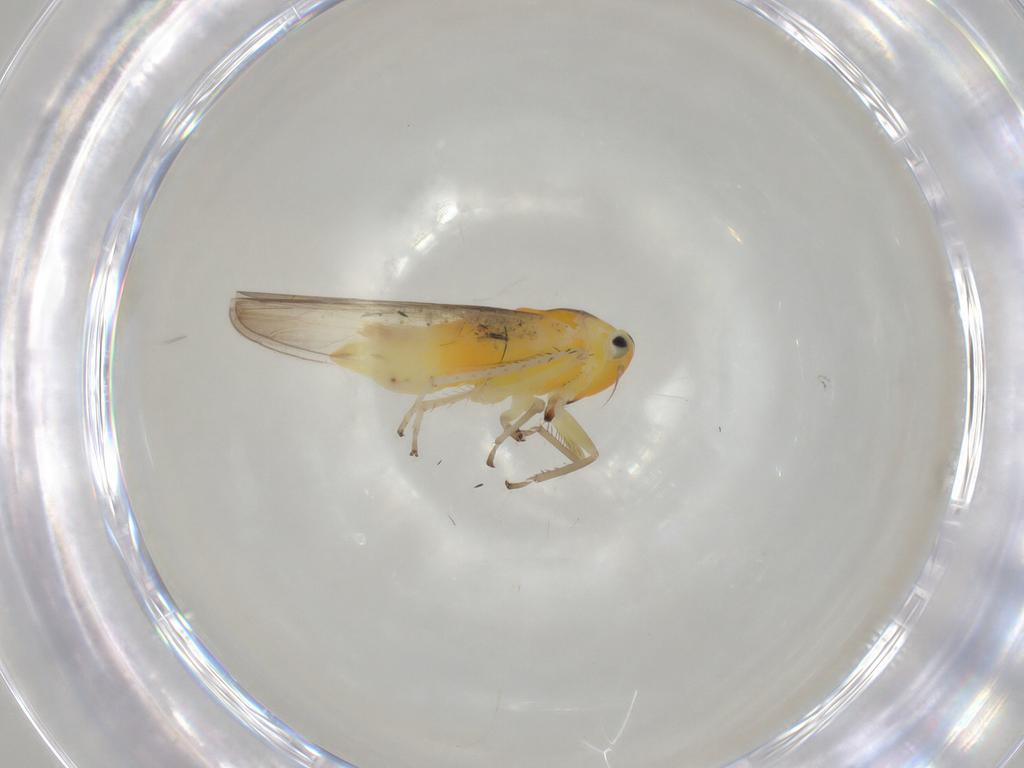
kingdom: Animalia
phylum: Arthropoda
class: Insecta
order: Hemiptera
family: Cicadellidae
